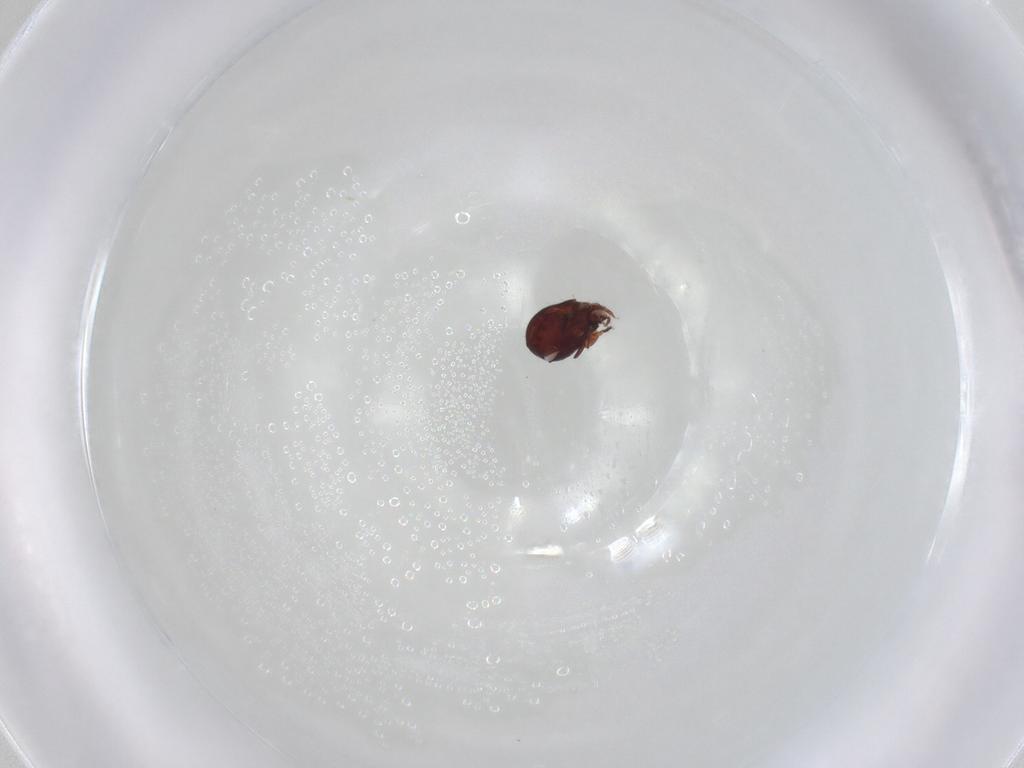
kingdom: Animalia
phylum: Arthropoda
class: Arachnida
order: Sarcoptiformes
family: Humerobatidae
